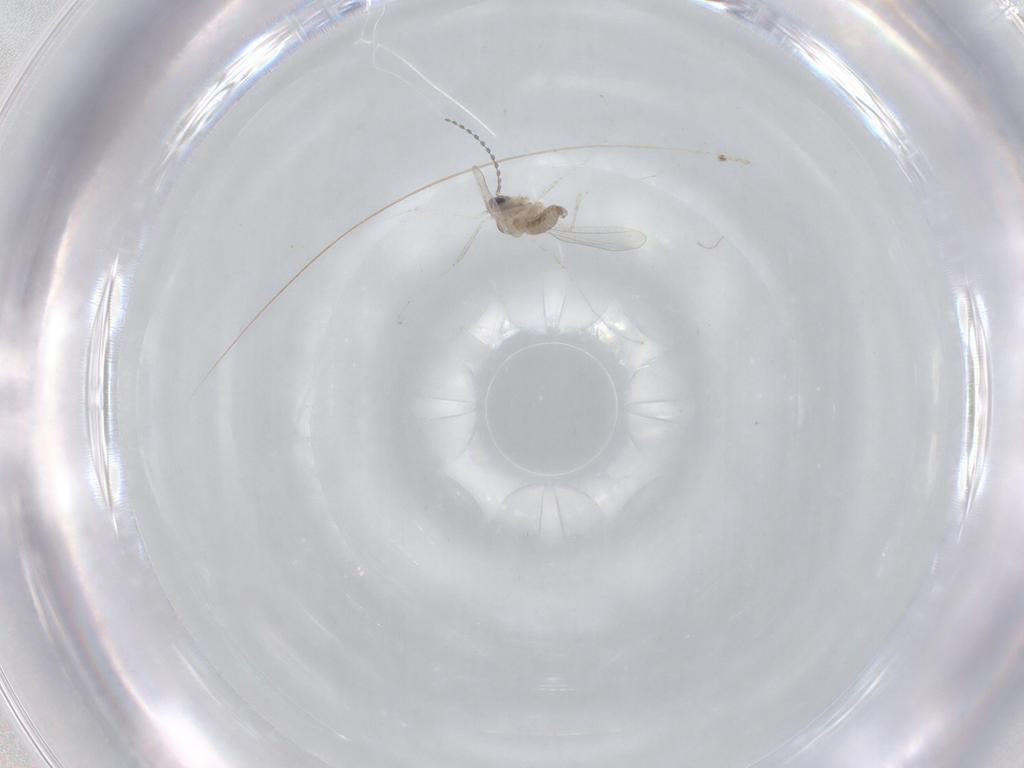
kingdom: Animalia
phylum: Arthropoda
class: Insecta
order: Diptera
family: Cecidomyiidae
